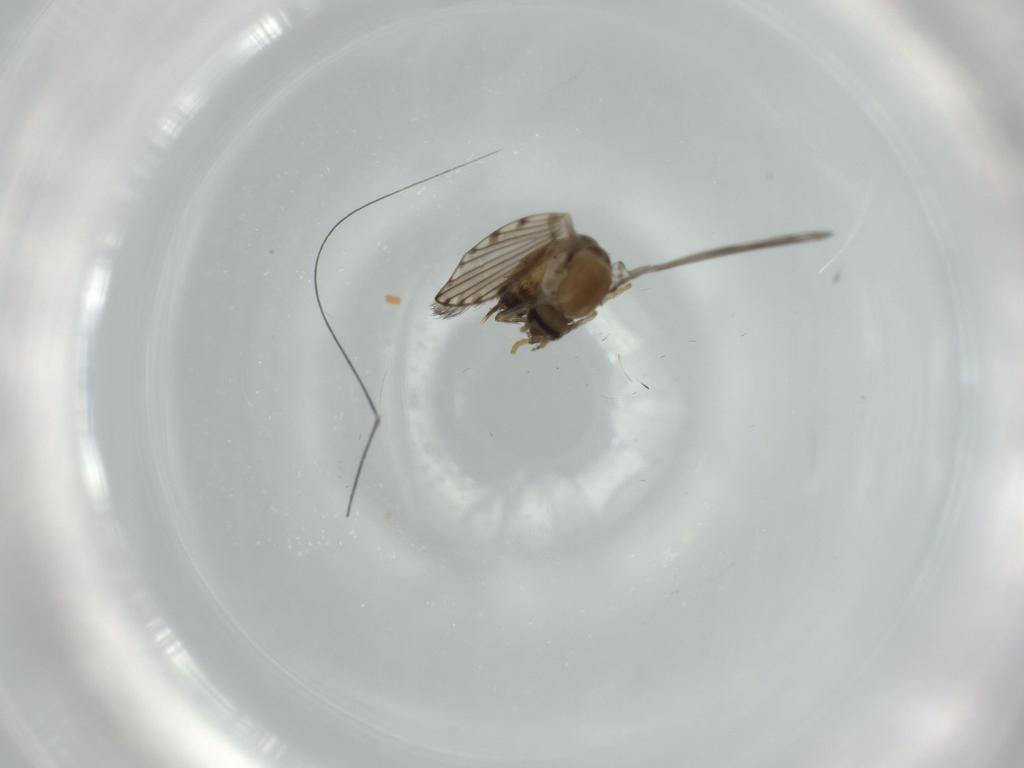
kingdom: Animalia
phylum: Arthropoda
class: Insecta
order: Diptera
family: Psychodidae
